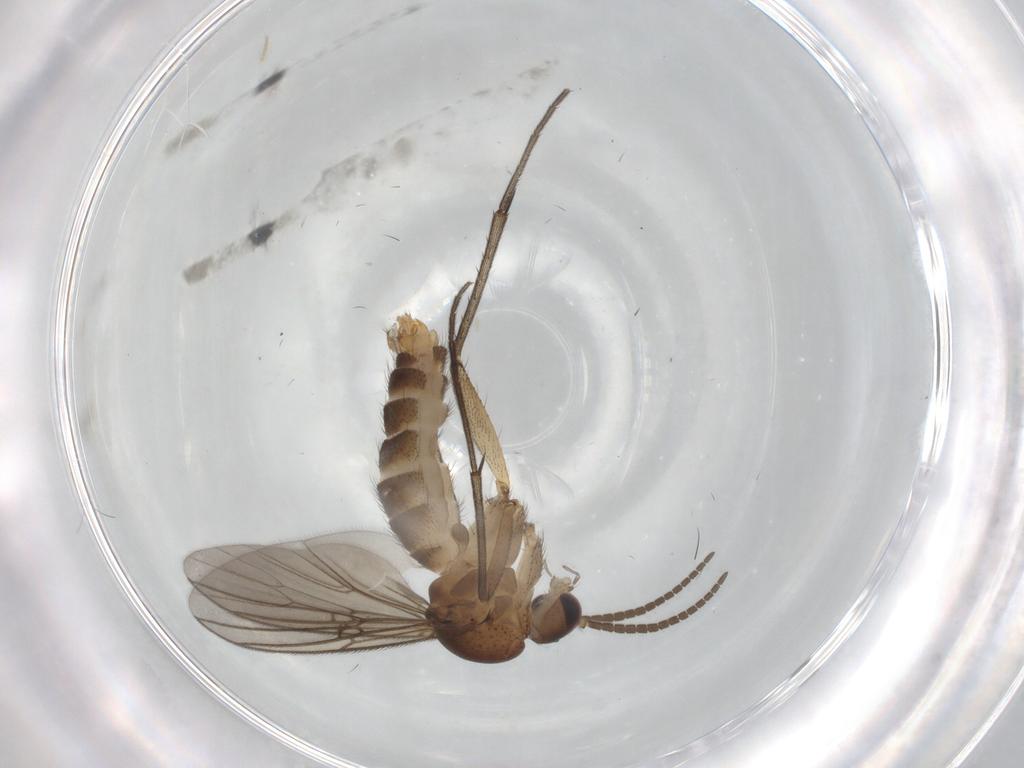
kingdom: Animalia
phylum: Arthropoda
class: Insecta
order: Diptera
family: Mycetophilidae
